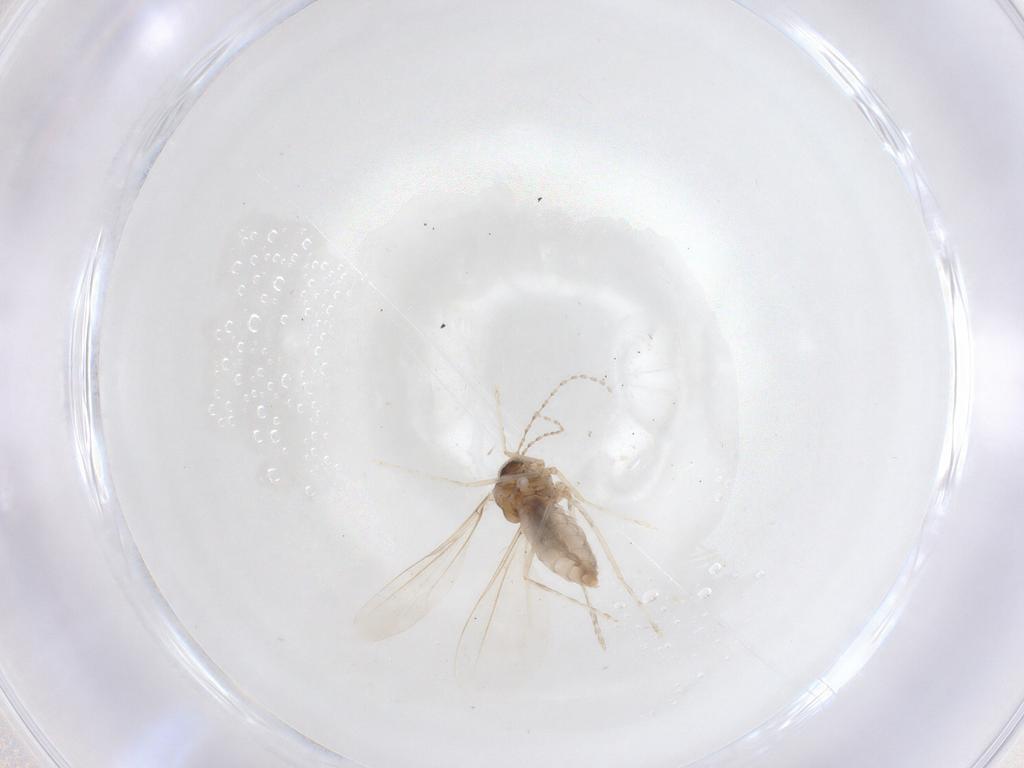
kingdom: Animalia
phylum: Arthropoda
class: Insecta
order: Diptera
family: Cecidomyiidae
